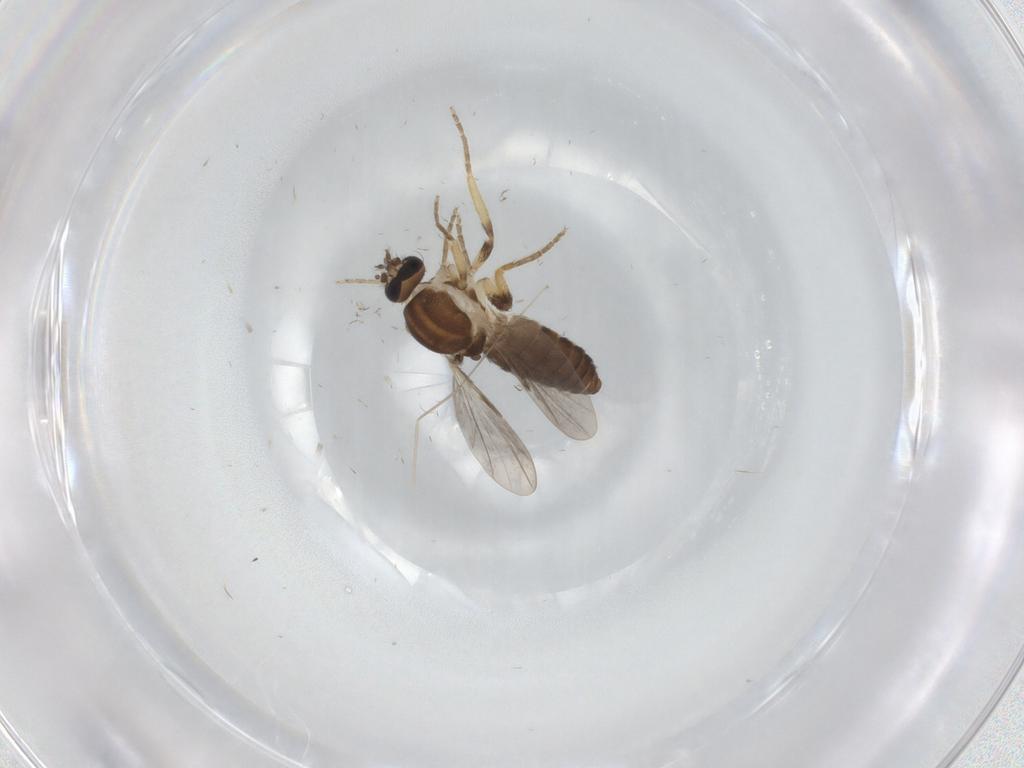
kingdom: Animalia
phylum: Arthropoda
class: Insecta
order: Diptera
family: Ceratopogonidae
